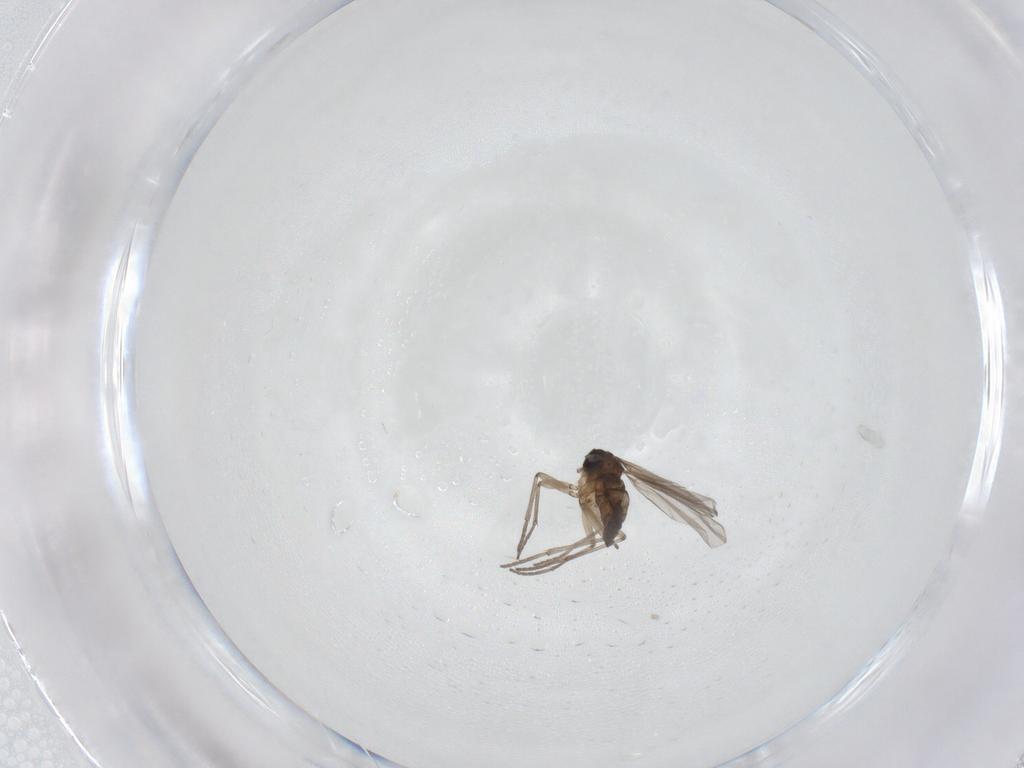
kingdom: Animalia
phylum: Arthropoda
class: Insecta
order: Diptera
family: Sciaridae
